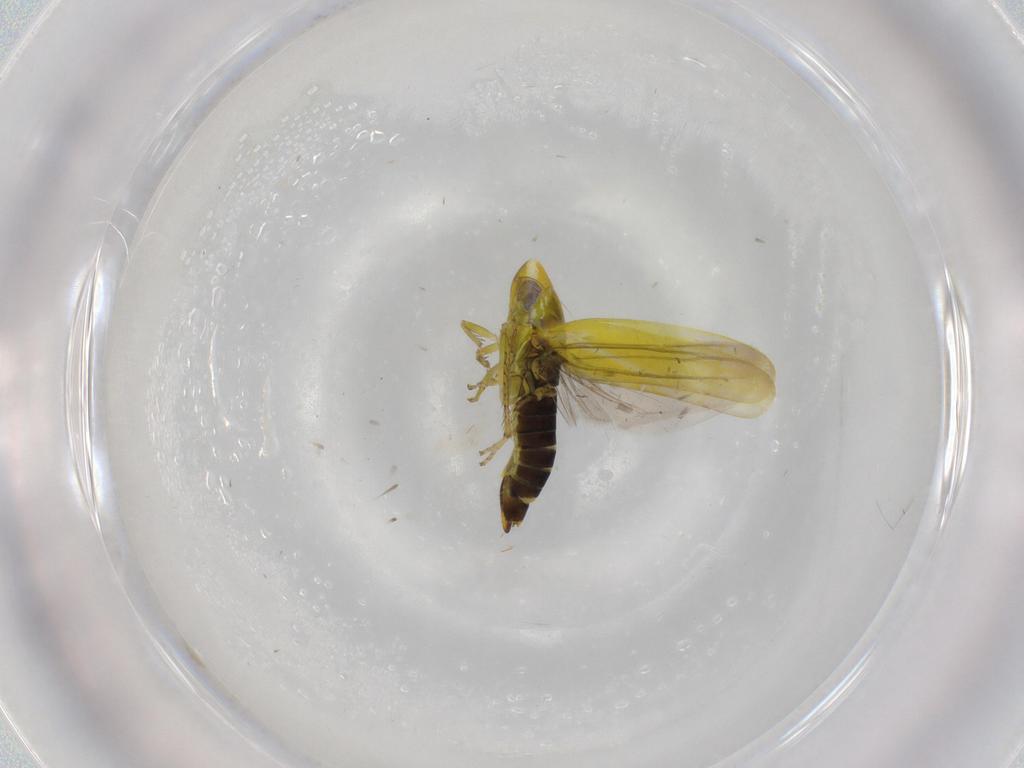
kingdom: Animalia
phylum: Arthropoda
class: Insecta
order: Hemiptera
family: Cicadellidae
